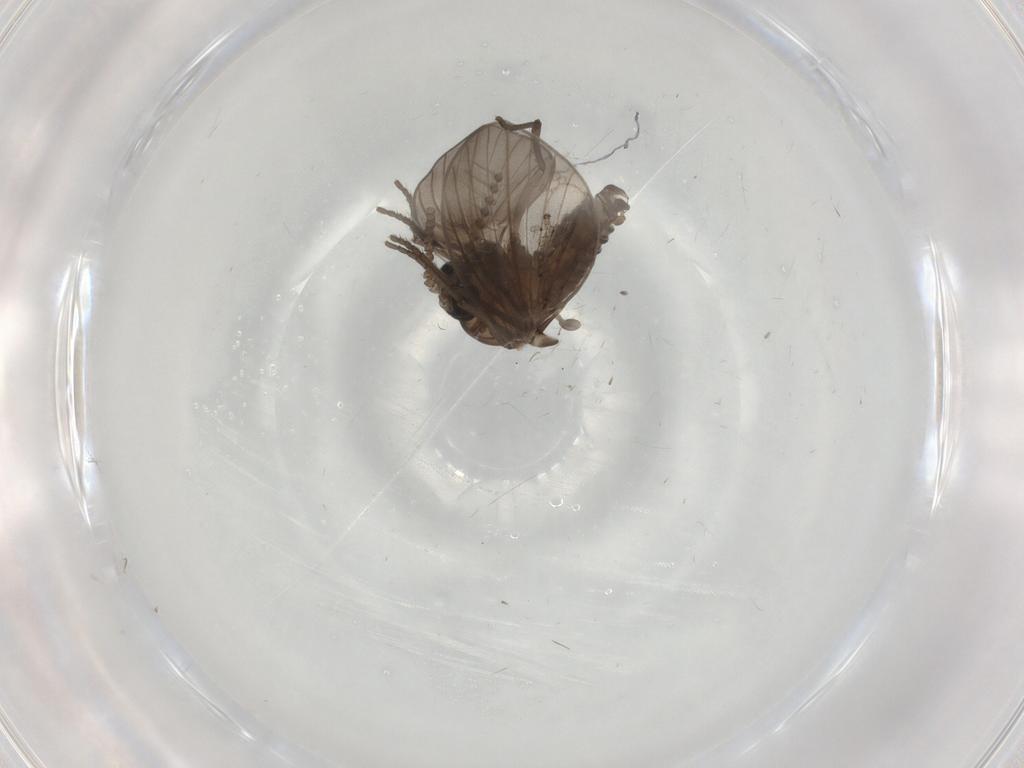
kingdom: Animalia
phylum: Arthropoda
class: Insecta
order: Diptera
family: Psychodidae
